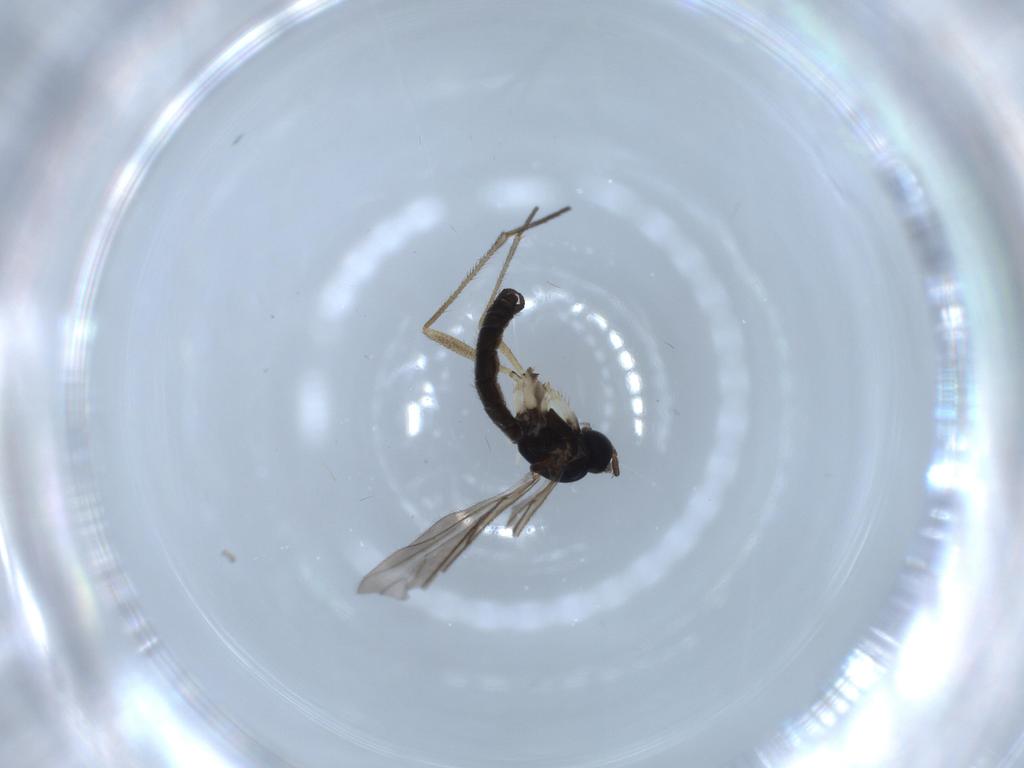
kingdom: Animalia
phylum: Arthropoda
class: Insecta
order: Diptera
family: Sciaridae
